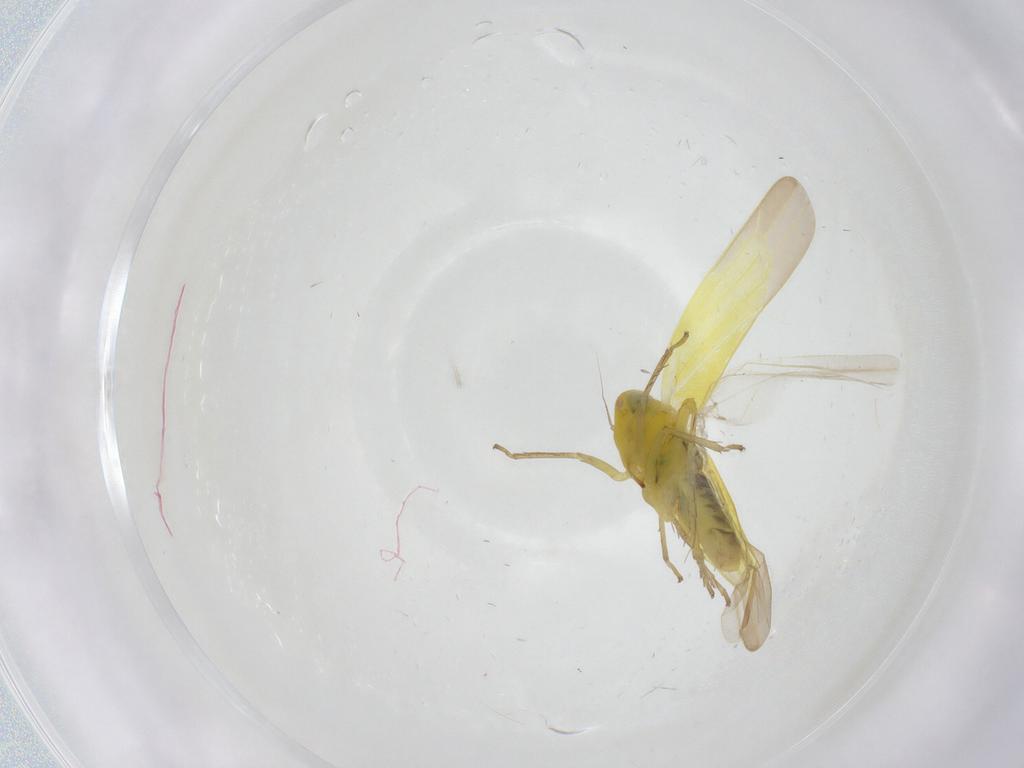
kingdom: Animalia
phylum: Arthropoda
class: Insecta
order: Hemiptera
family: Cicadellidae
